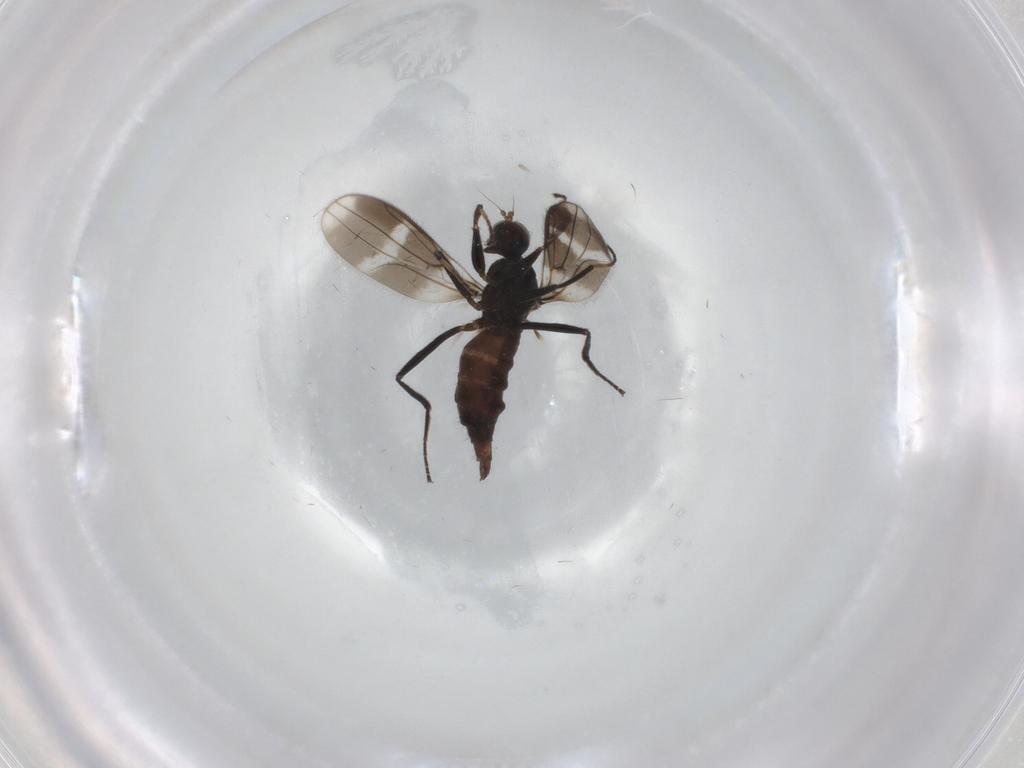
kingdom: Animalia
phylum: Arthropoda
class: Insecta
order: Diptera
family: Hybotidae
